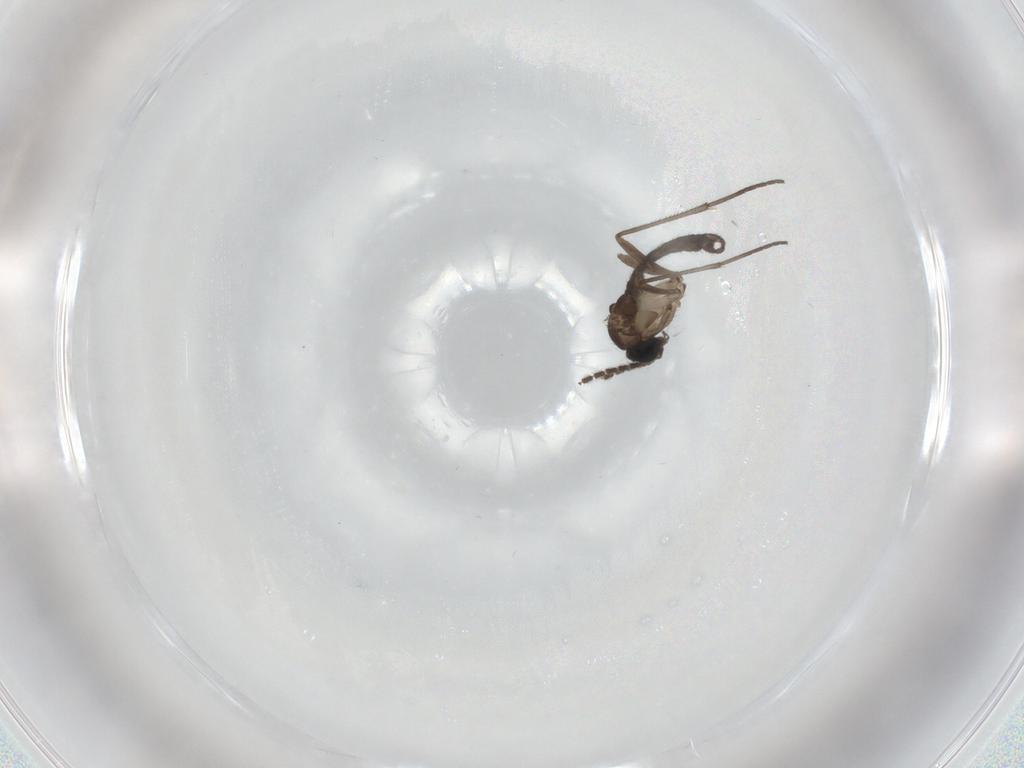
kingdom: Animalia
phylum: Arthropoda
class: Insecta
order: Diptera
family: Sciaridae
